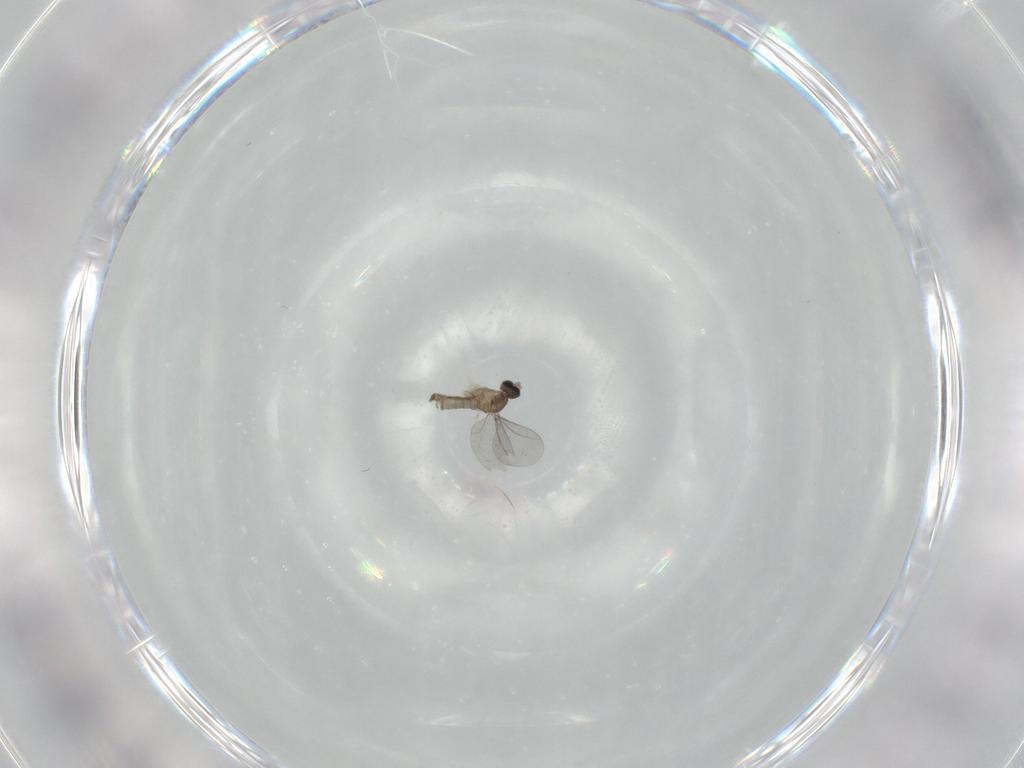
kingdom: Animalia
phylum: Arthropoda
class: Insecta
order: Diptera
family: Cecidomyiidae
